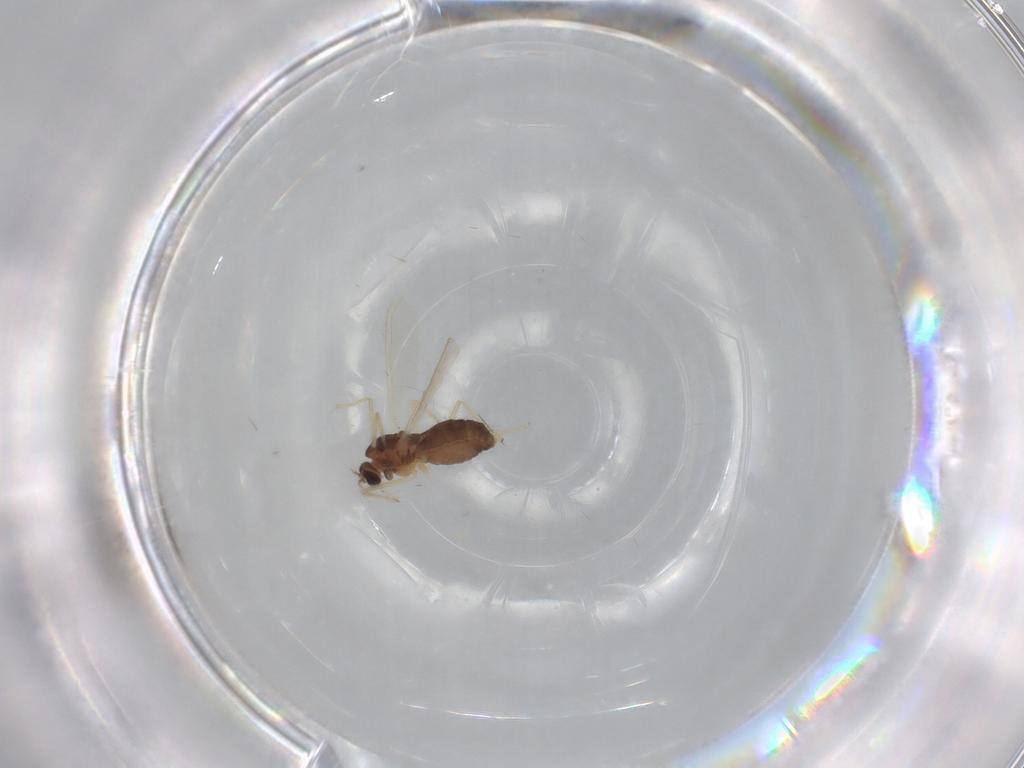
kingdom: Animalia
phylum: Arthropoda
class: Insecta
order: Diptera
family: Chironomidae
